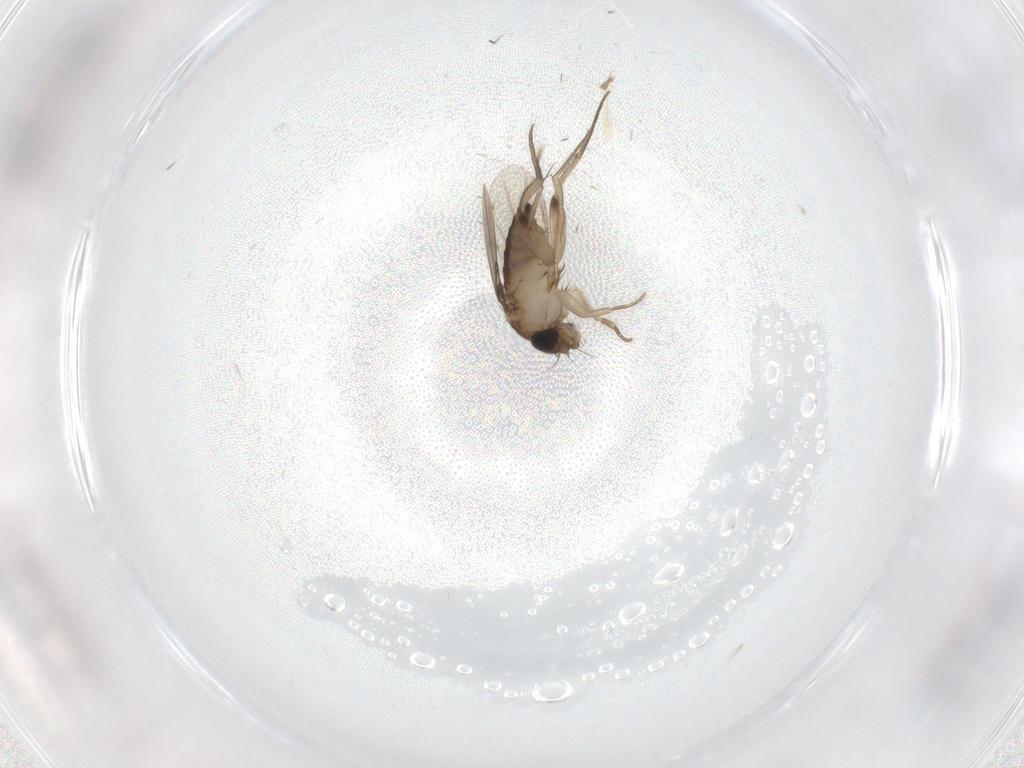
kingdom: Animalia
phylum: Arthropoda
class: Insecta
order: Diptera
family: Phoridae
